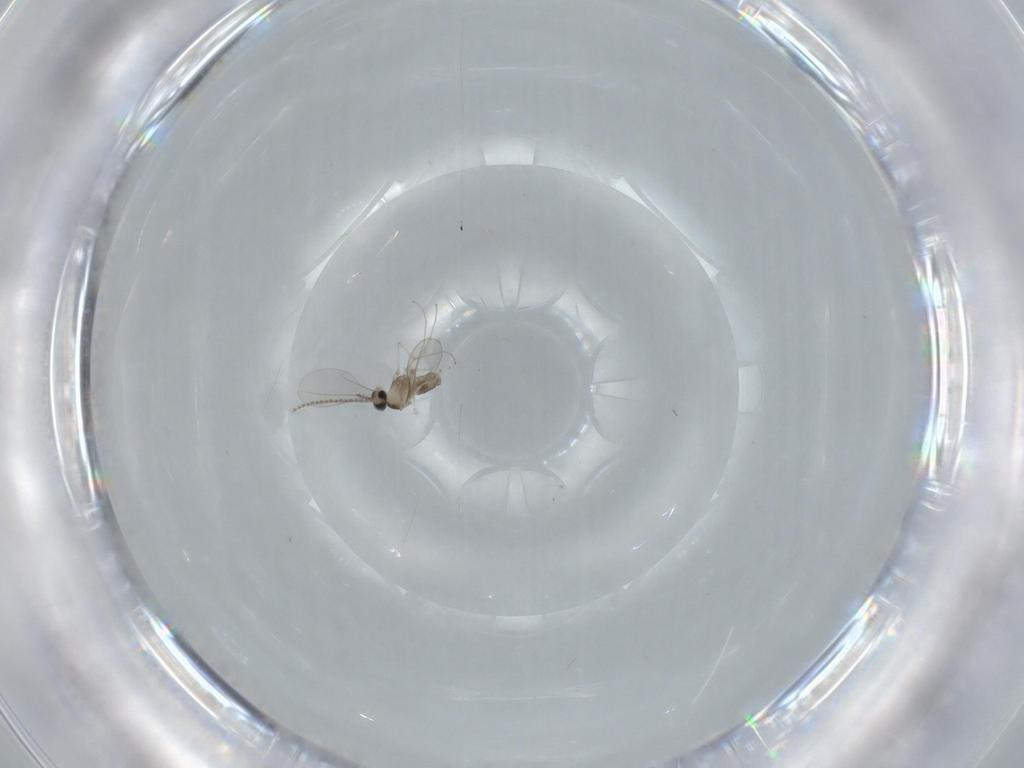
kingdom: Animalia
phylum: Arthropoda
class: Insecta
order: Diptera
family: Cecidomyiidae
